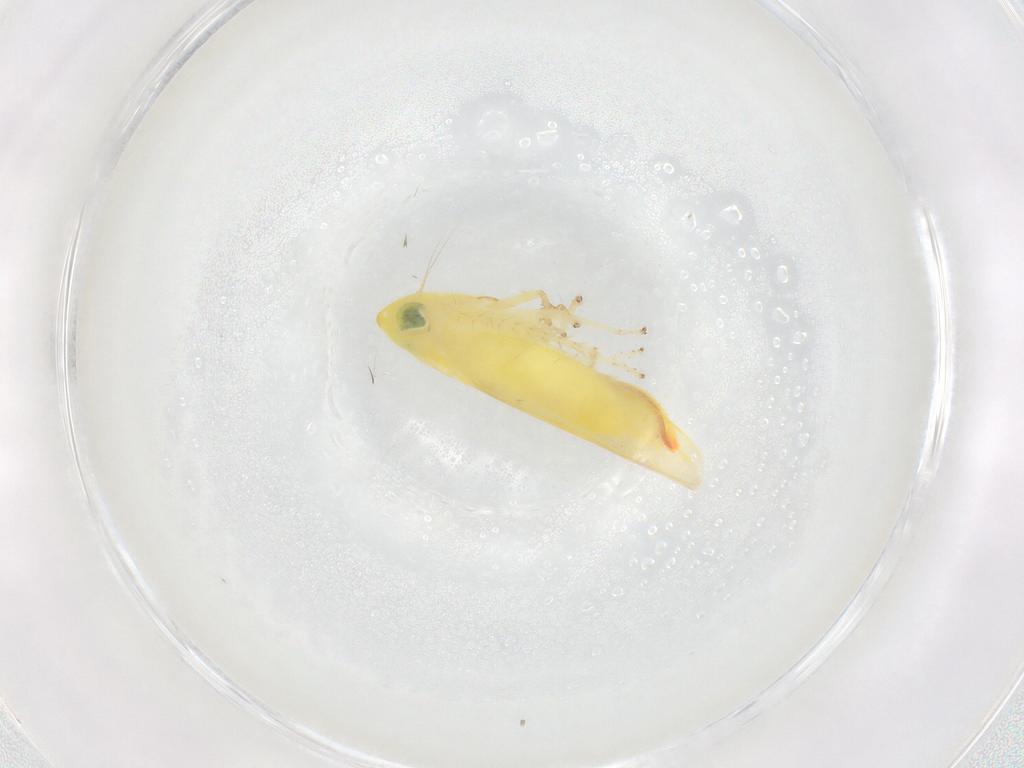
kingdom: Animalia
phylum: Arthropoda
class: Insecta
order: Hemiptera
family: Cicadellidae
